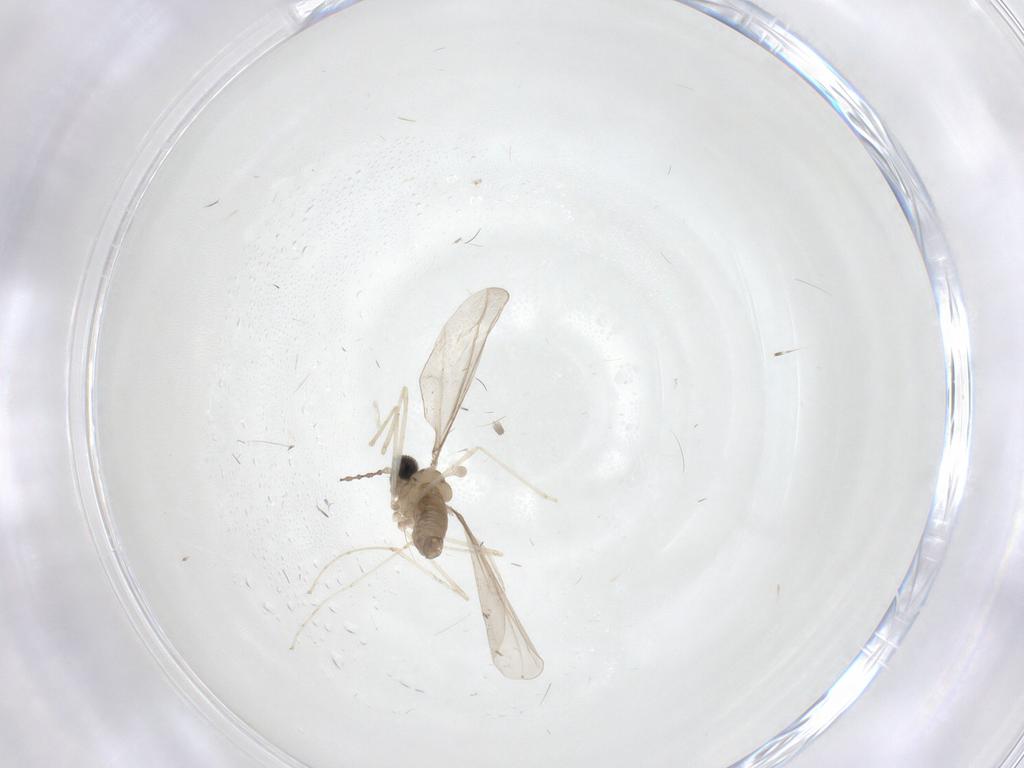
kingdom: Animalia
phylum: Arthropoda
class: Insecta
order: Diptera
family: Cecidomyiidae
